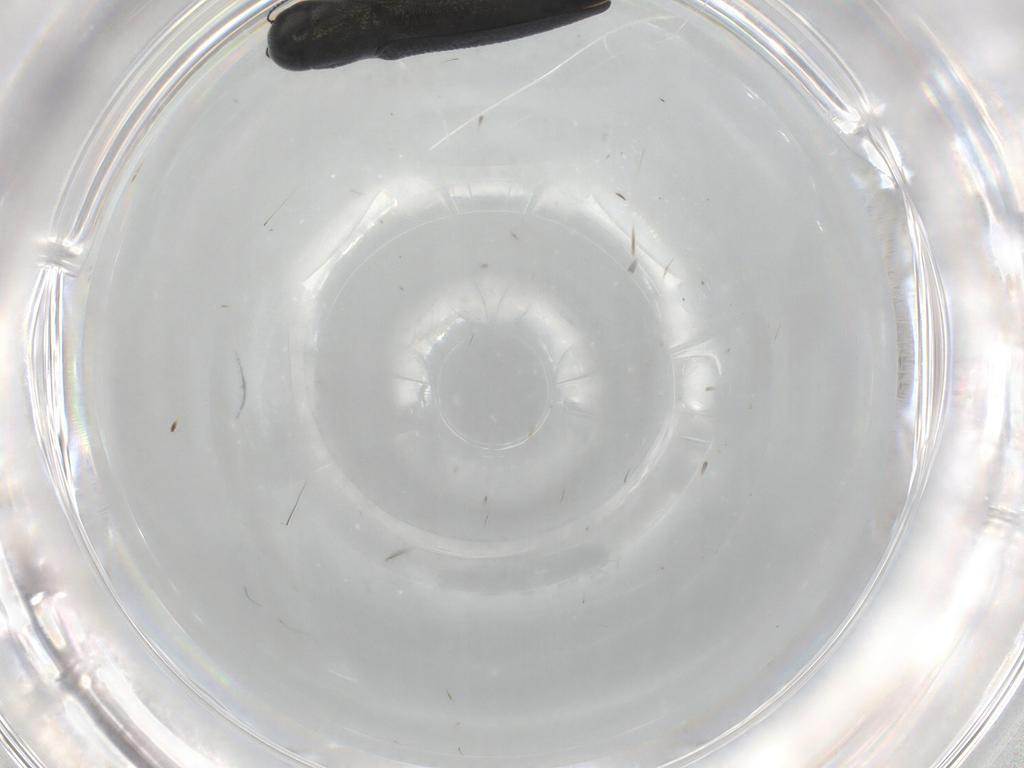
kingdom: Animalia
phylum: Arthropoda
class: Insecta
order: Coleoptera
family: Buprestidae
